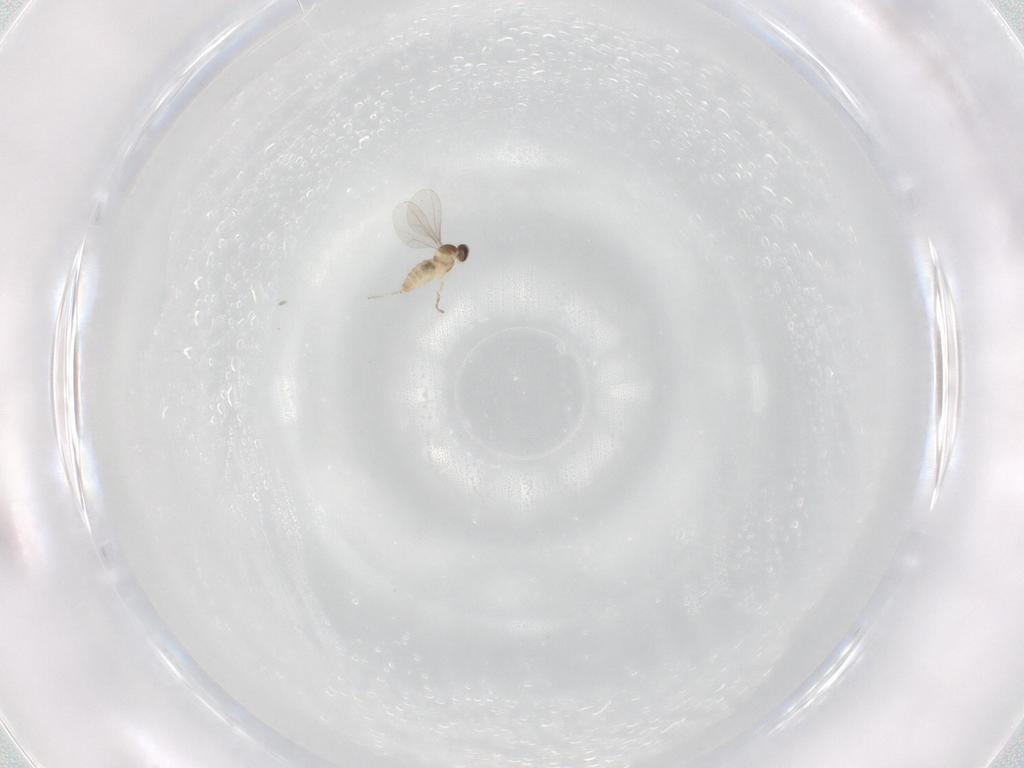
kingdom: Animalia
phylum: Arthropoda
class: Insecta
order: Diptera
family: Cecidomyiidae
